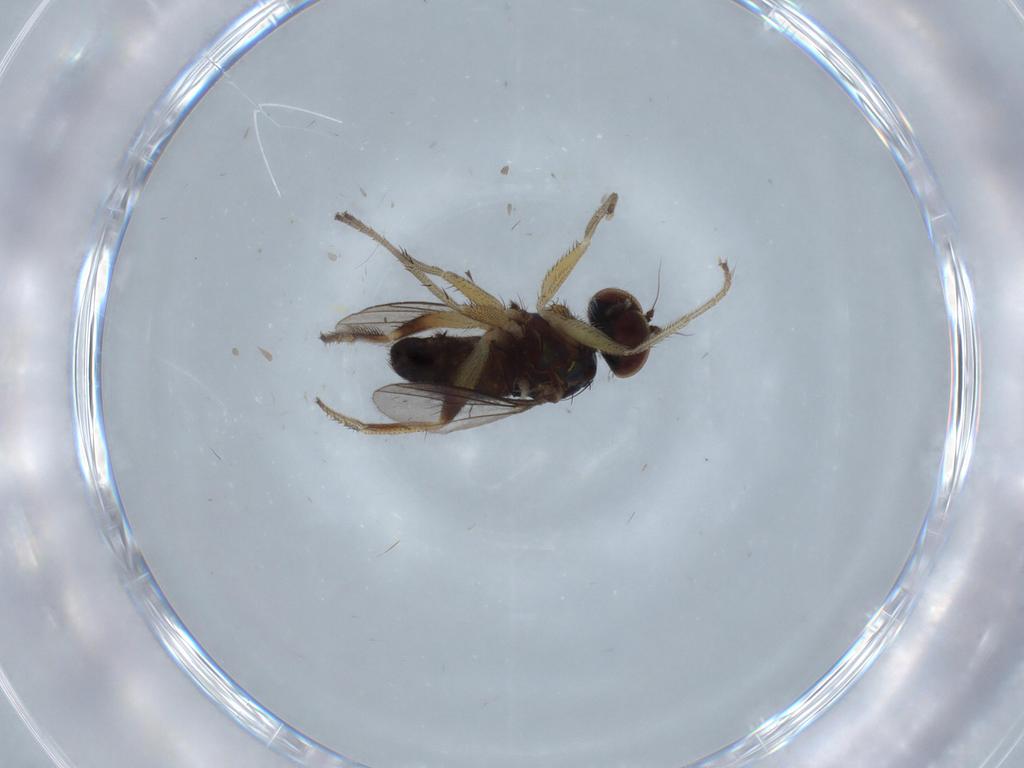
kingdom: Animalia
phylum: Arthropoda
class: Insecta
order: Diptera
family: Dolichopodidae
